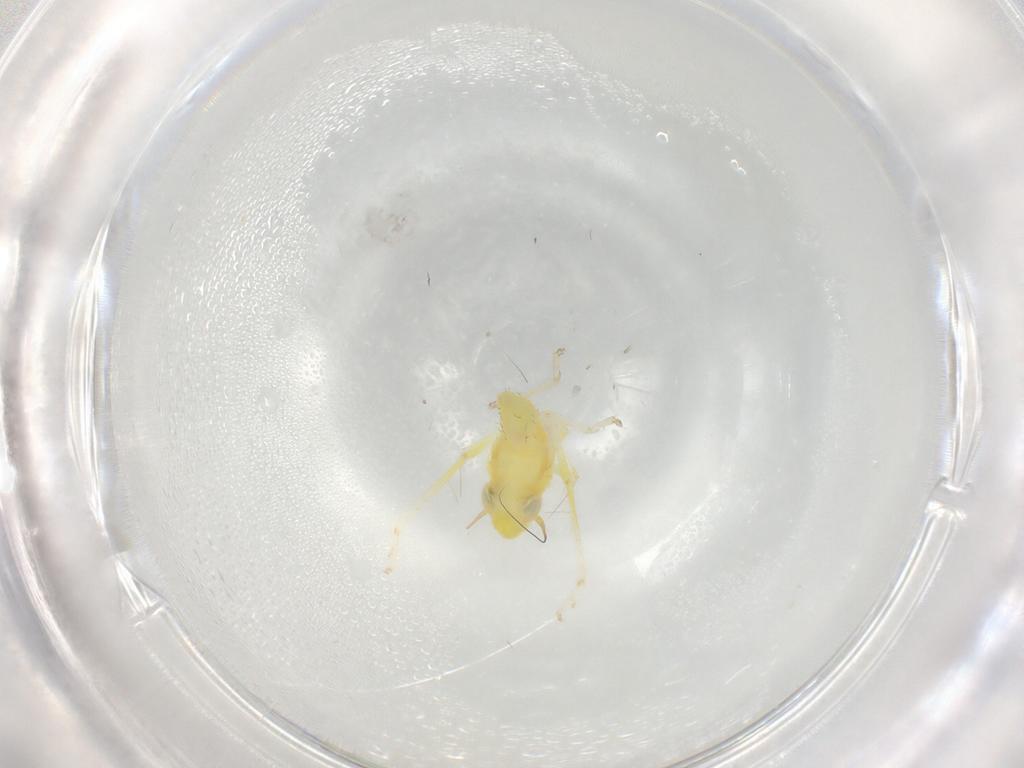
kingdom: Animalia
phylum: Arthropoda
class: Insecta
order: Hemiptera
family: Cicadellidae
